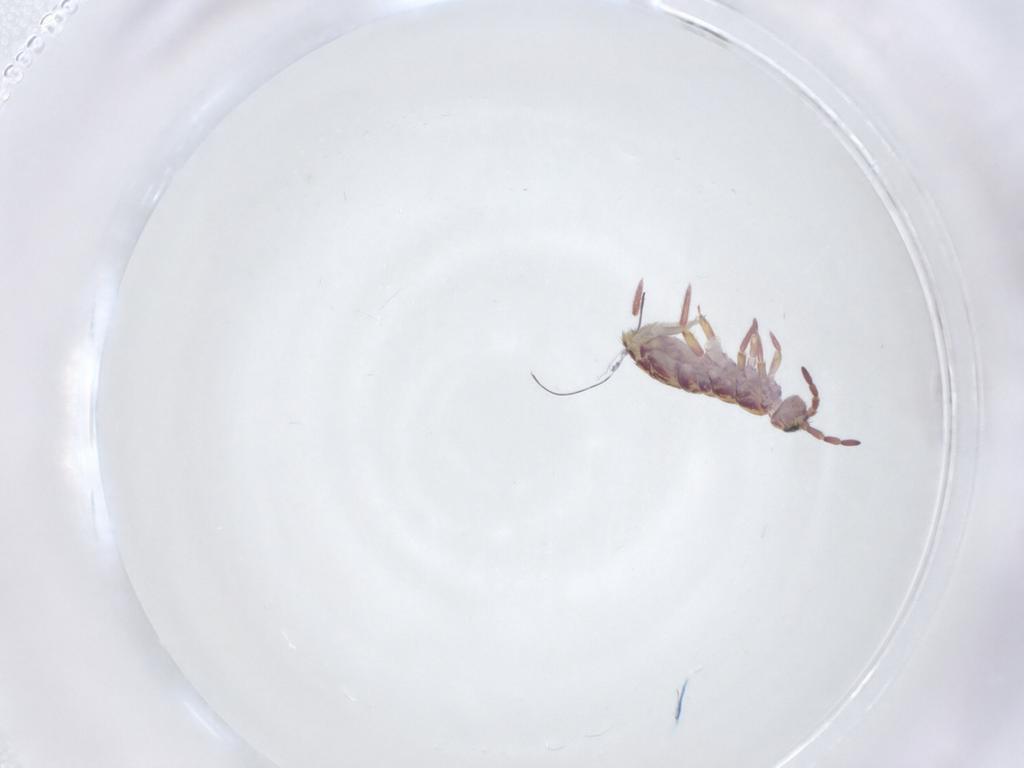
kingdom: Animalia
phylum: Arthropoda
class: Collembola
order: Entomobryomorpha
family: Isotomidae
